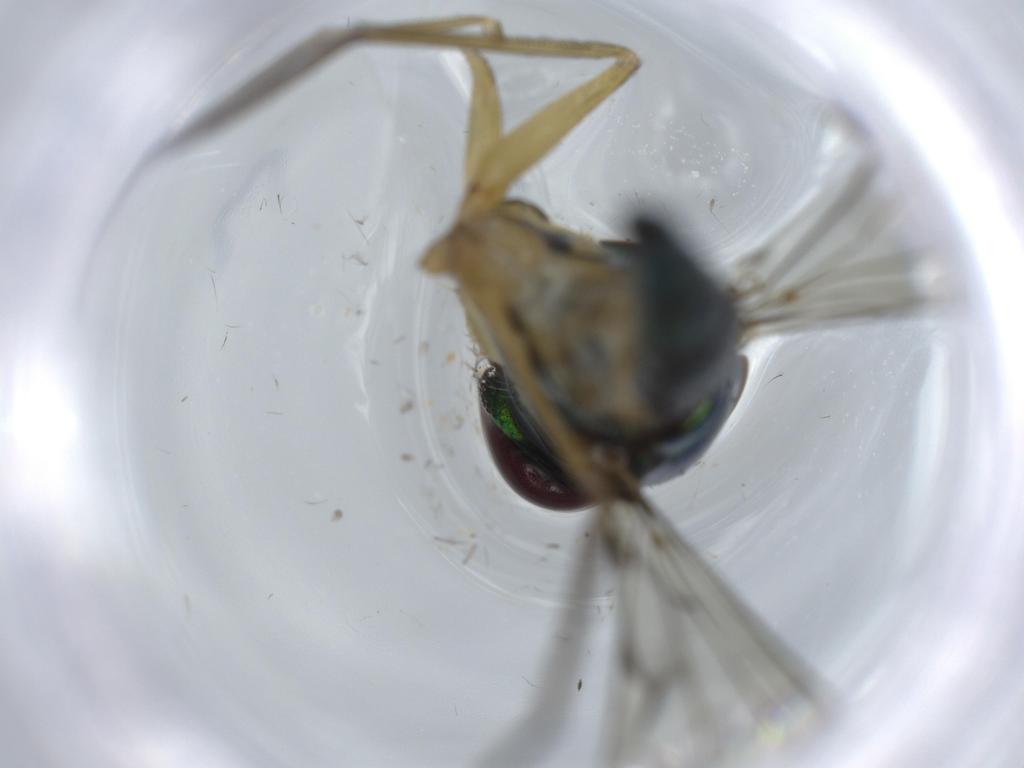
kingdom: Animalia
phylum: Arthropoda
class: Insecta
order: Diptera
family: Dolichopodidae
